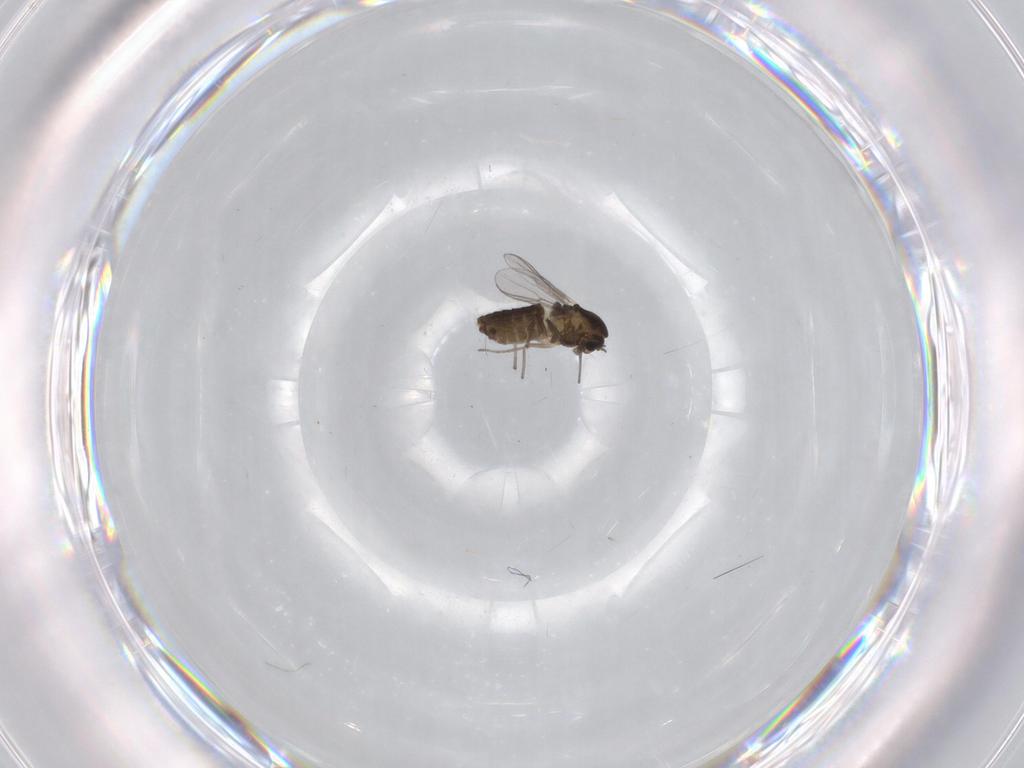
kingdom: Animalia
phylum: Arthropoda
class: Insecta
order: Diptera
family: Chironomidae
